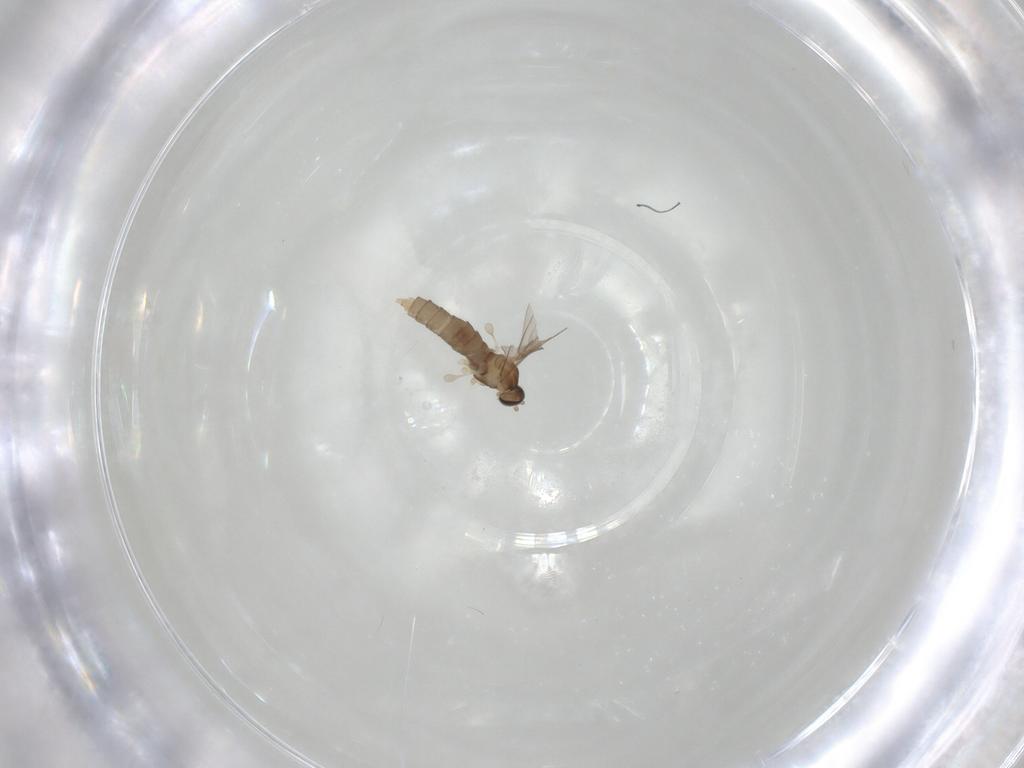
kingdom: Animalia
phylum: Arthropoda
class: Insecta
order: Diptera
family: Cecidomyiidae
